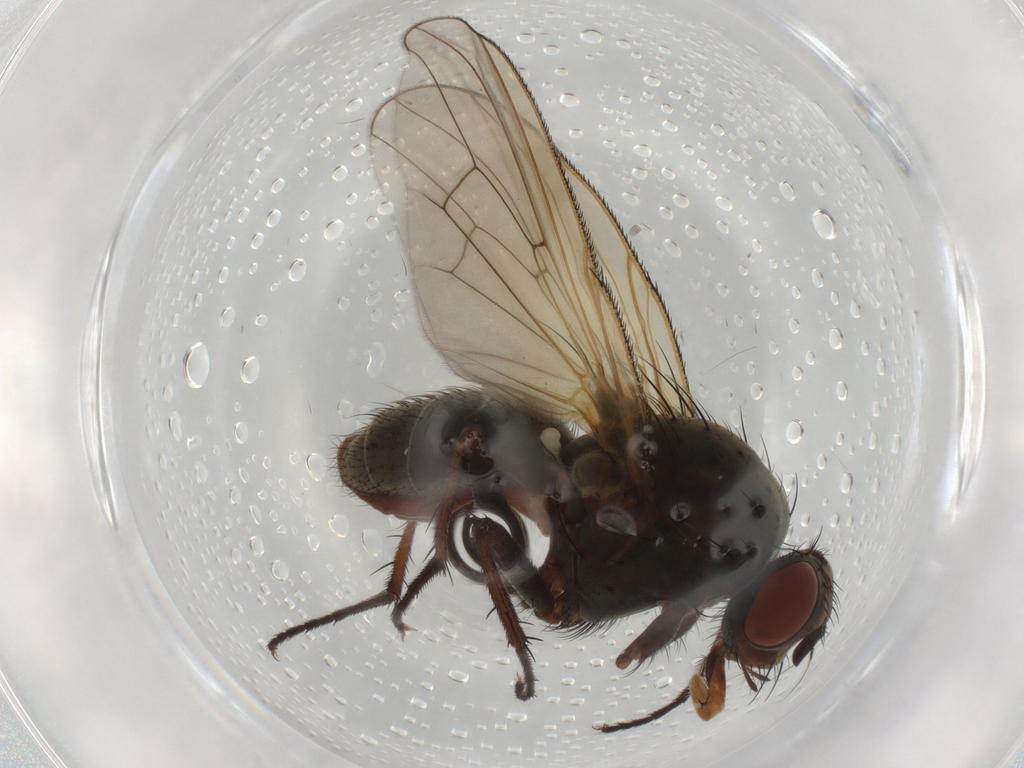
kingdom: Animalia
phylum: Arthropoda
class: Insecta
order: Diptera
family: Anthomyiidae
